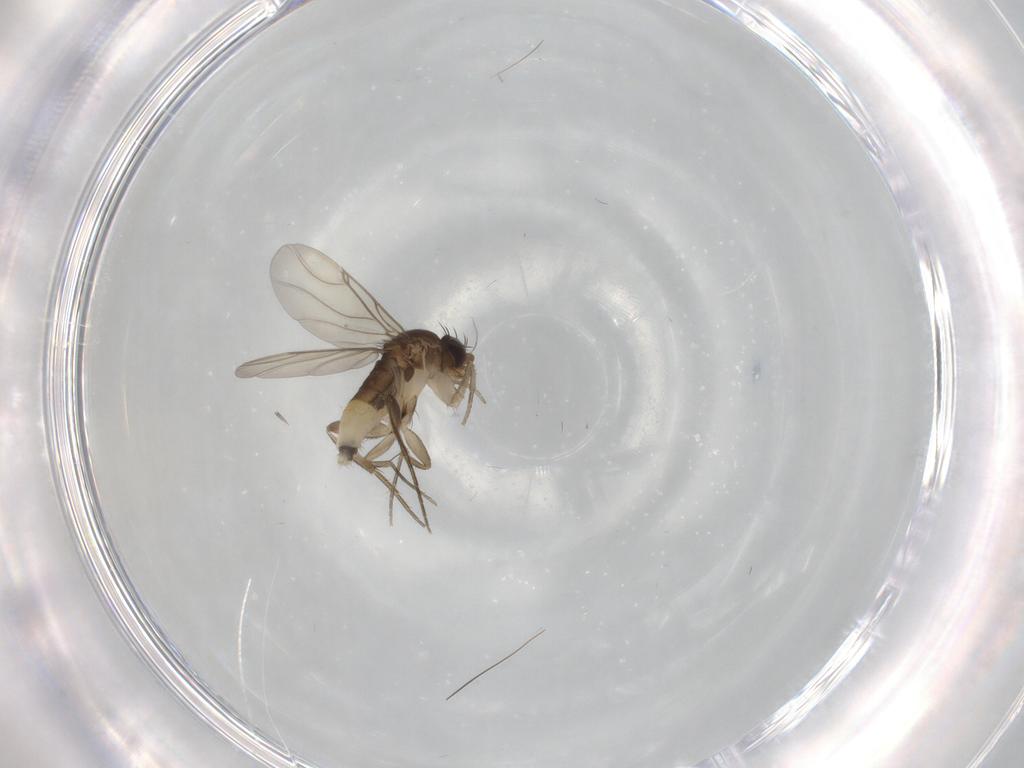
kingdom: Animalia
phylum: Arthropoda
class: Insecta
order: Diptera
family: Phoridae
